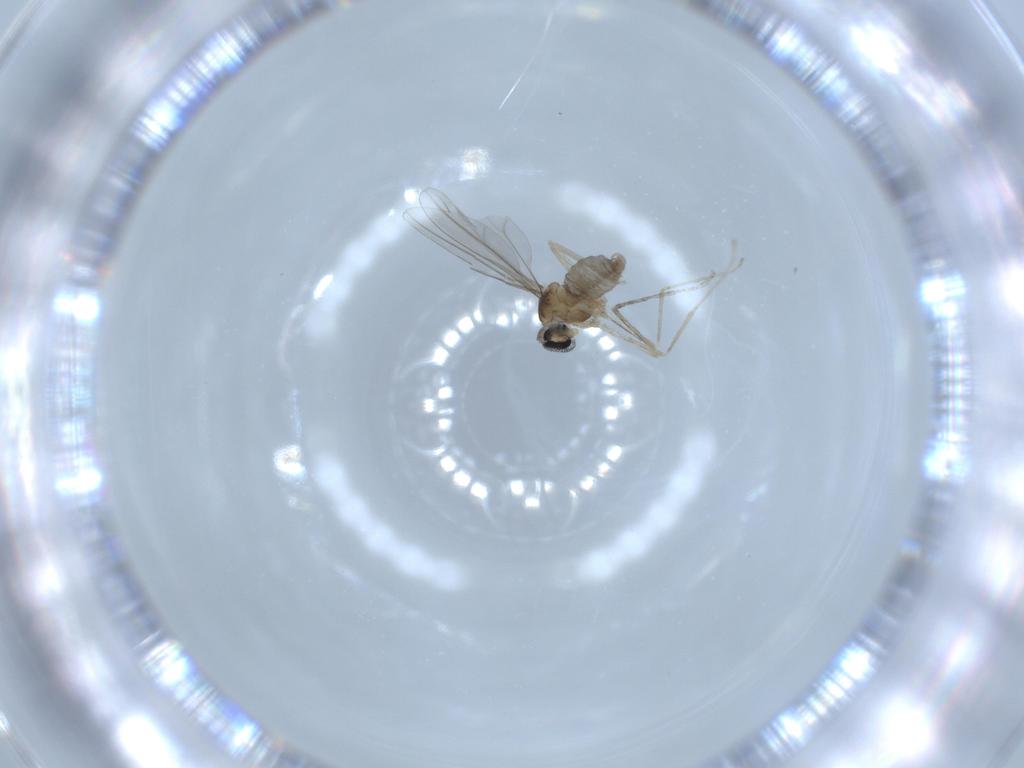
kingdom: Animalia
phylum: Arthropoda
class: Insecta
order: Diptera
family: Cecidomyiidae
